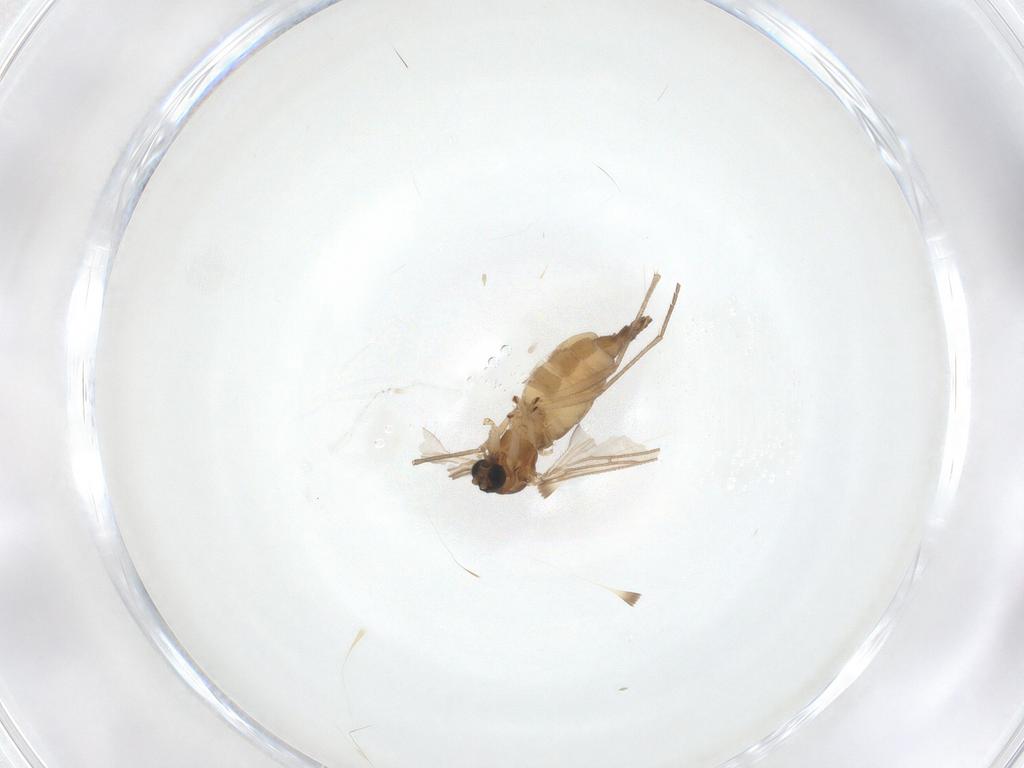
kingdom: Animalia
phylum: Arthropoda
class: Insecta
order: Diptera
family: Sciaridae
